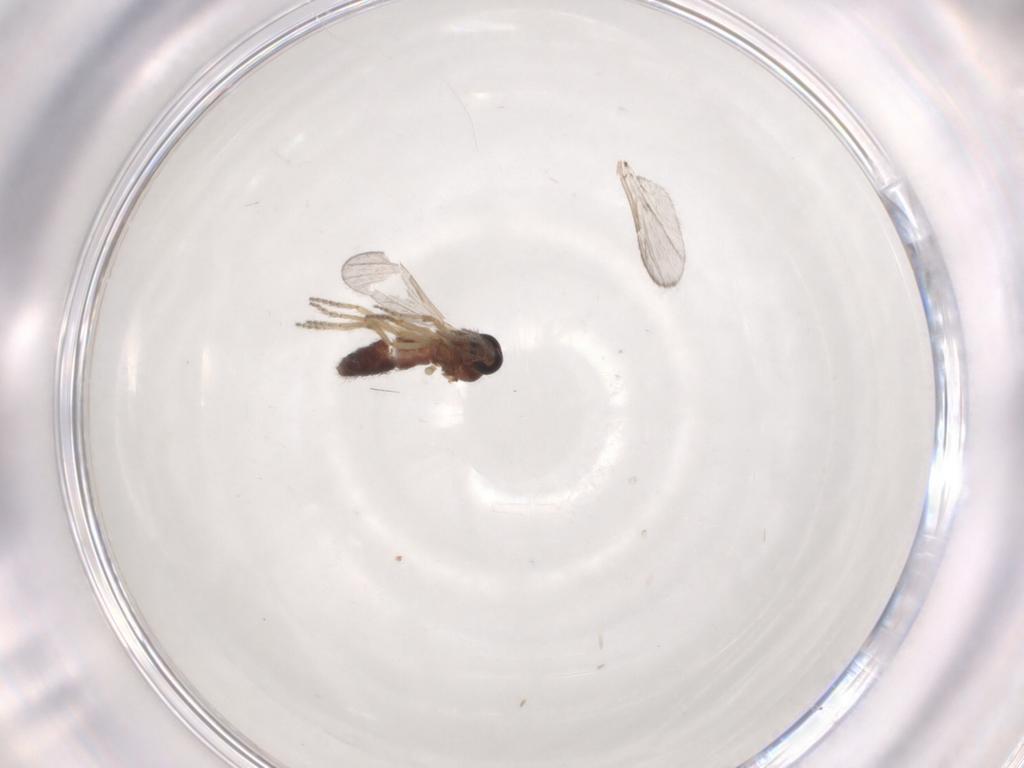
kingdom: Animalia
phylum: Arthropoda
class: Insecta
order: Diptera
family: Ceratopogonidae
